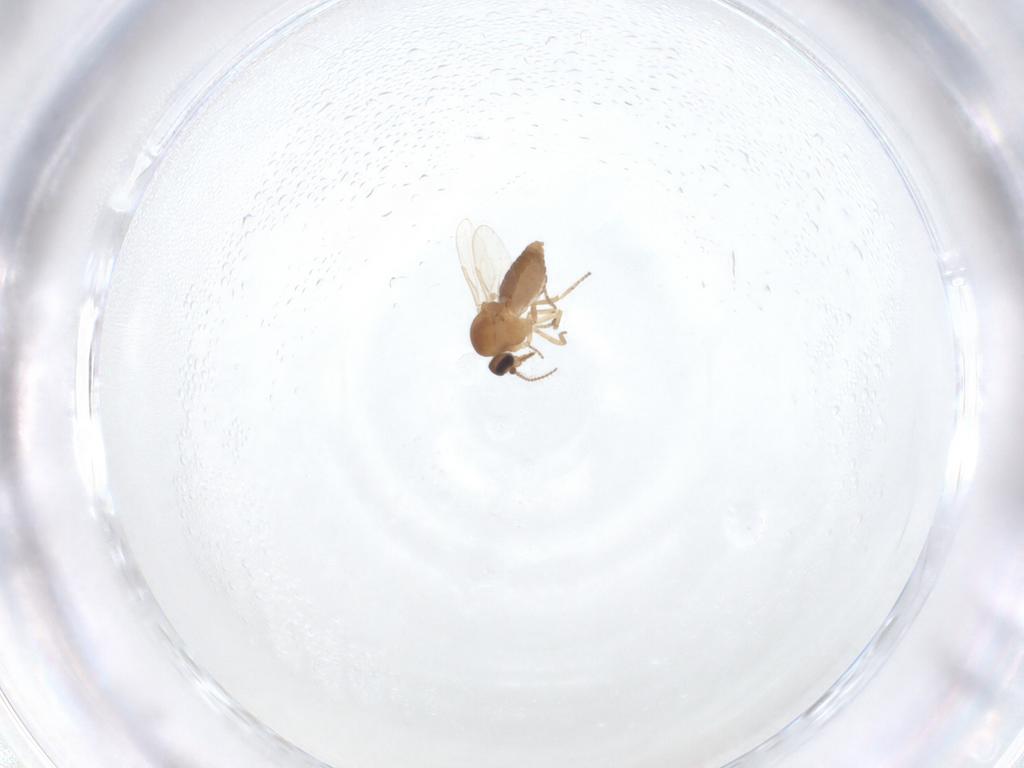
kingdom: Animalia
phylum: Arthropoda
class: Insecta
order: Diptera
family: Ceratopogonidae
